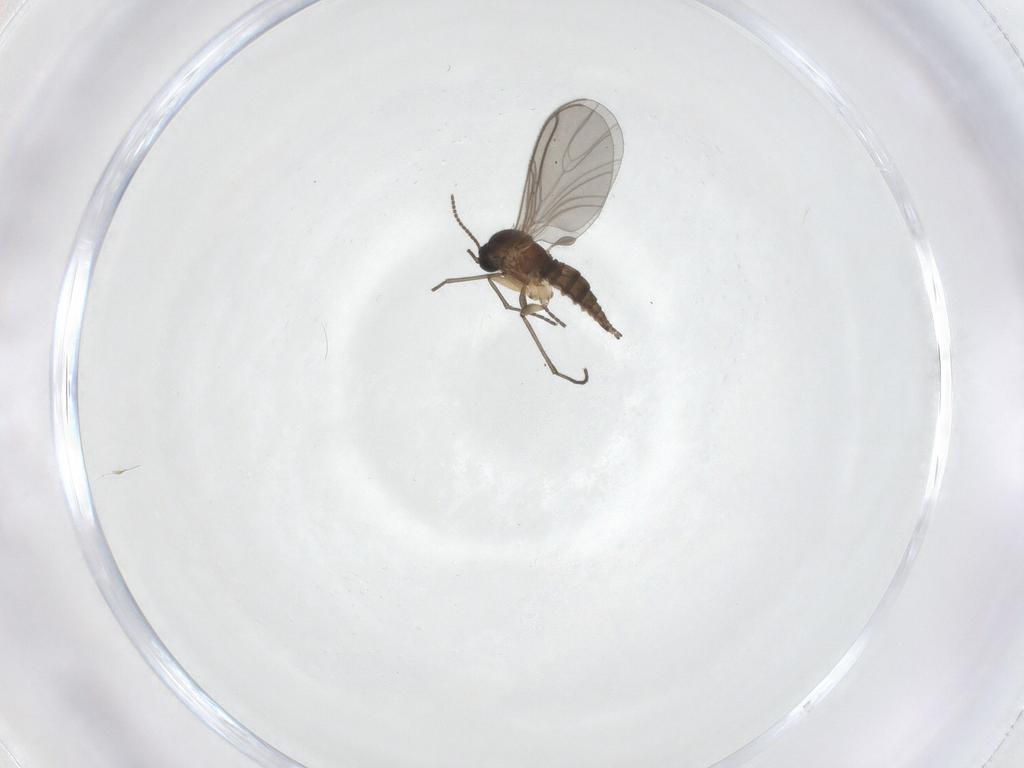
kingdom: Animalia
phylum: Arthropoda
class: Insecta
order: Diptera
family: Sciaridae
